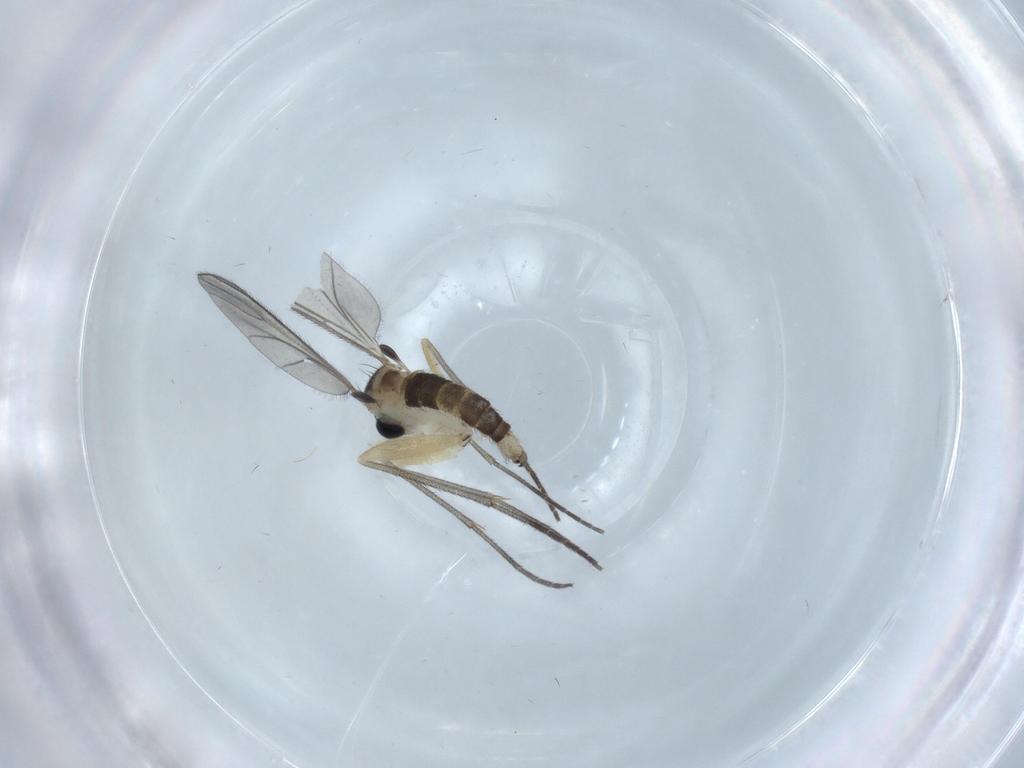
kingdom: Animalia
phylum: Arthropoda
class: Insecta
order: Diptera
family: Sciaridae
